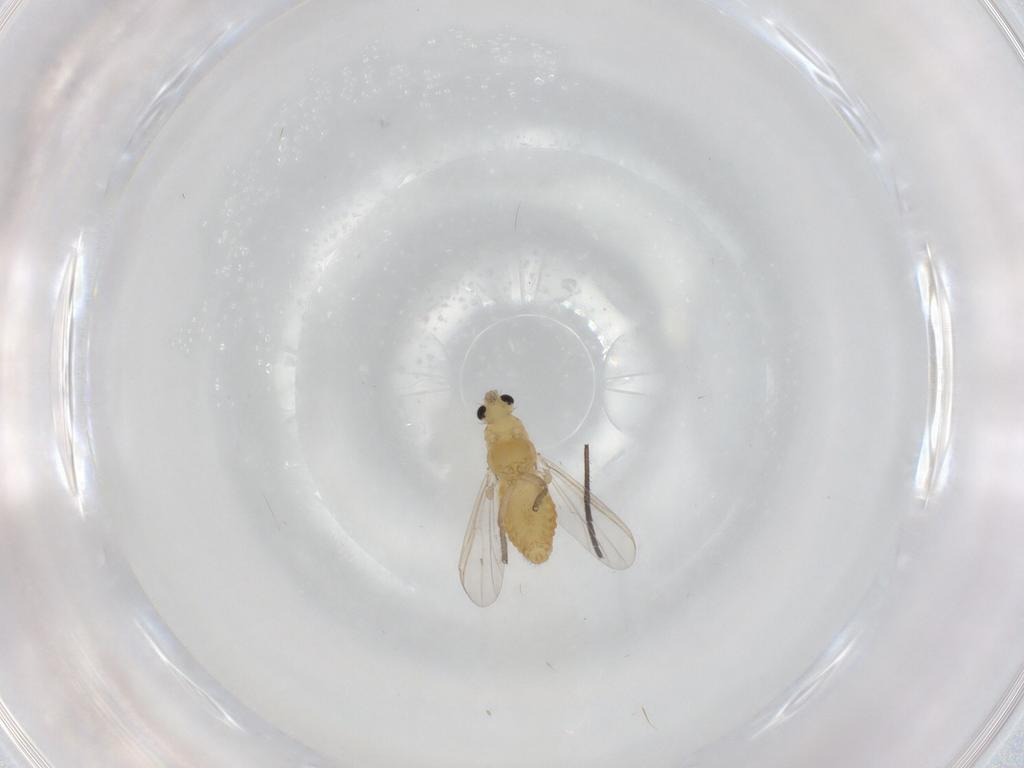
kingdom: Animalia
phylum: Arthropoda
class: Insecta
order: Diptera
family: Chironomidae
